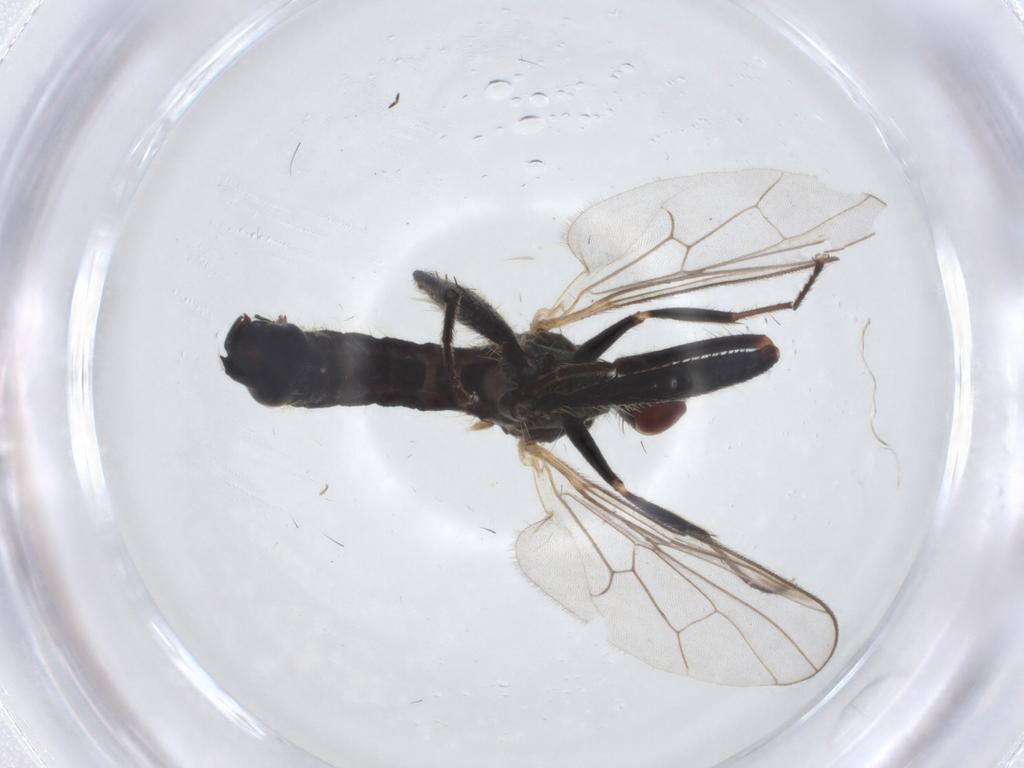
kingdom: Animalia
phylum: Arthropoda
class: Insecta
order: Diptera
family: Hybotidae
